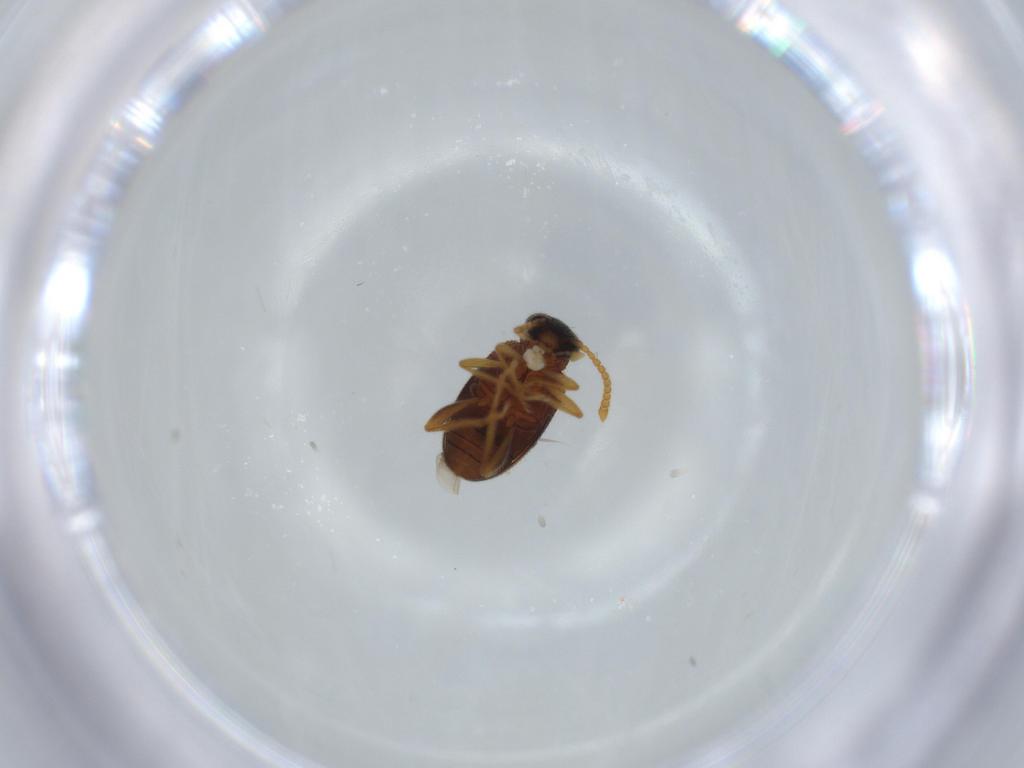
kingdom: Animalia
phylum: Arthropoda
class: Insecta
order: Coleoptera
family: Aderidae
